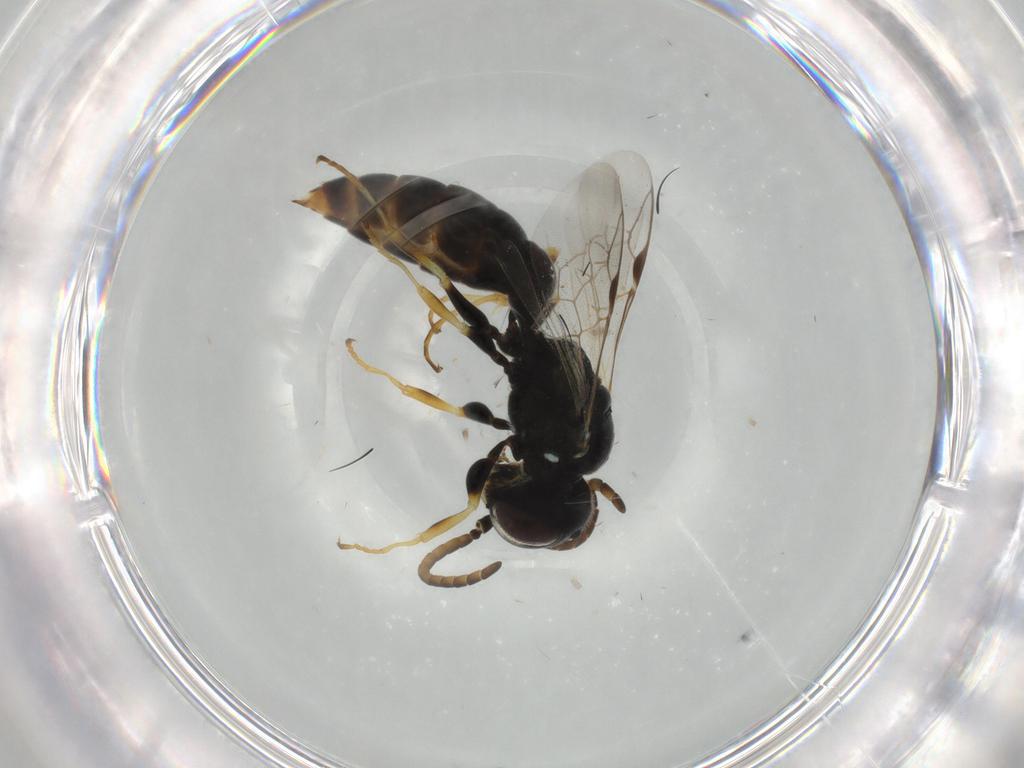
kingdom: Animalia
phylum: Arthropoda
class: Insecta
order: Hymenoptera
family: Crabronidae
